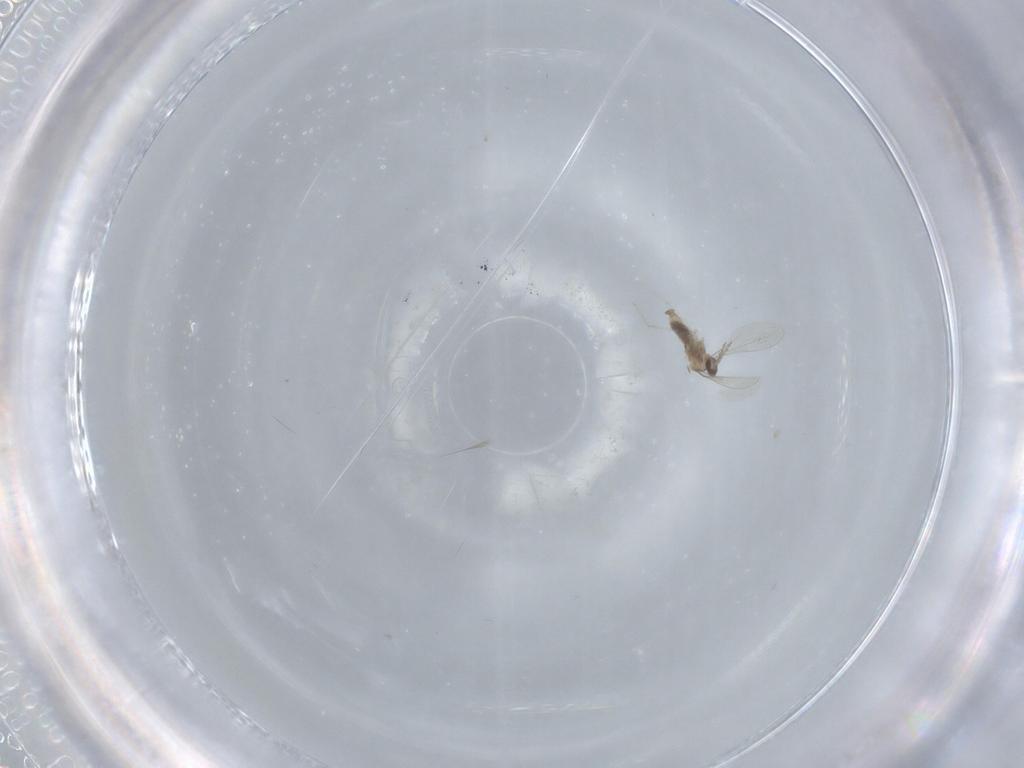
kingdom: Animalia
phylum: Arthropoda
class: Insecta
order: Diptera
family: Cecidomyiidae
